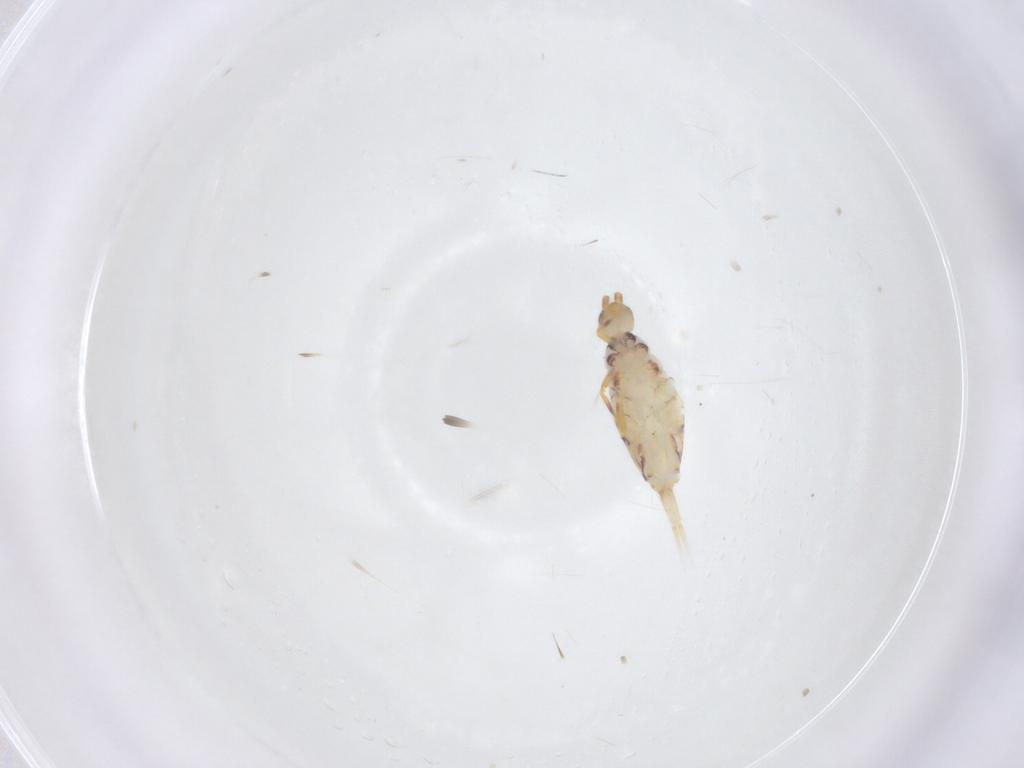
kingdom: Animalia
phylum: Arthropoda
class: Collembola
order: Entomobryomorpha
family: Entomobryidae
